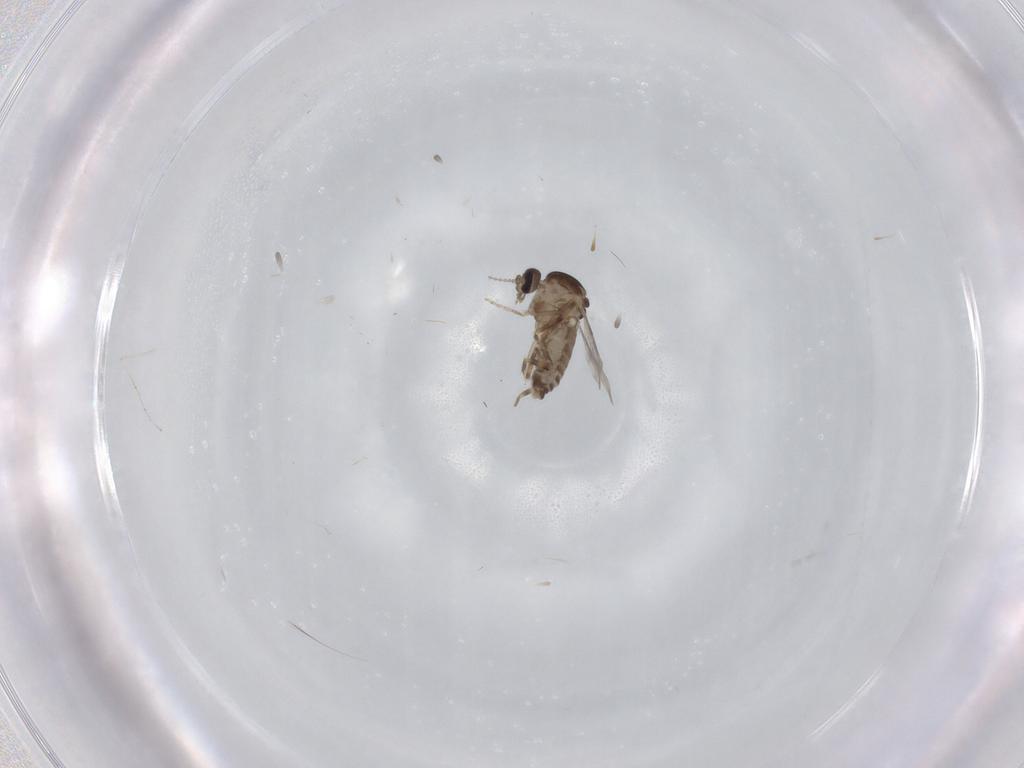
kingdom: Animalia
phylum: Arthropoda
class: Insecta
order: Diptera
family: Ceratopogonidae
